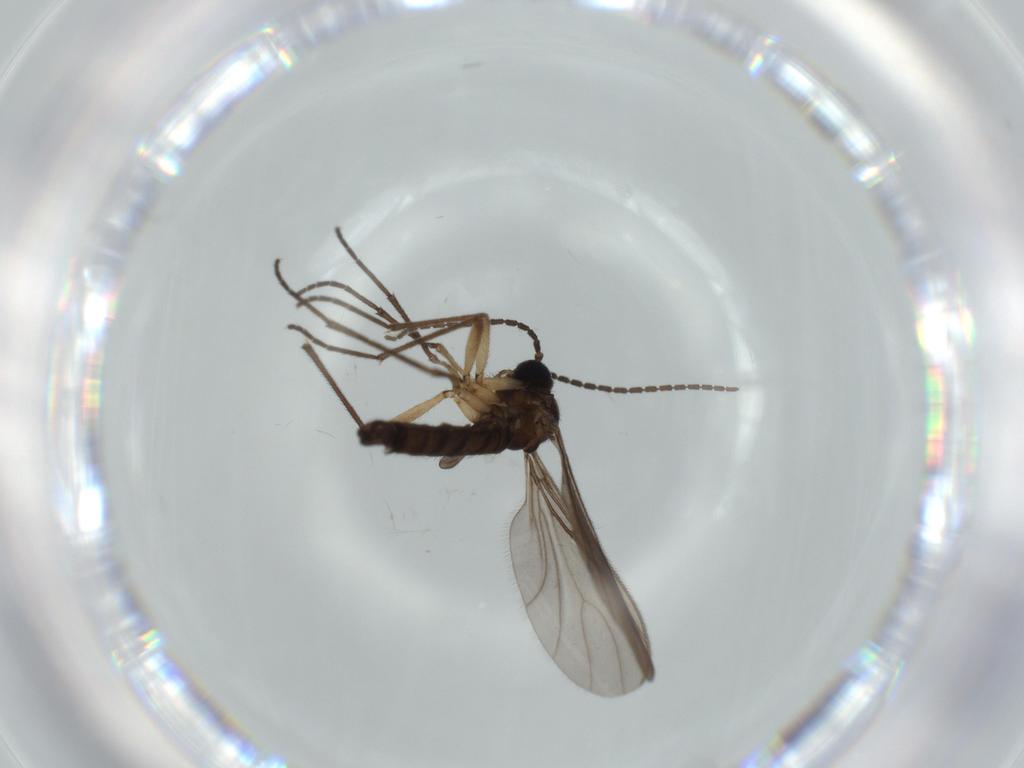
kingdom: Animalia
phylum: Arthropoda
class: Insecta
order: Diptera
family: Sciaridae
